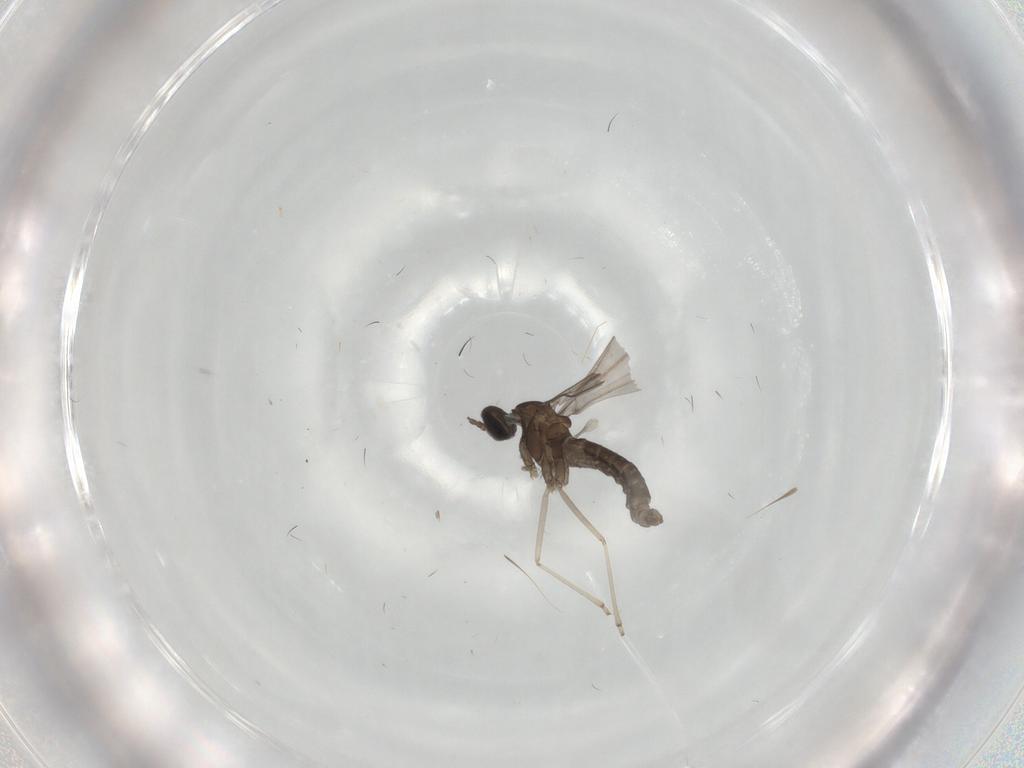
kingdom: Animalia
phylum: Arthropoda
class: Insecta
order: Diptera
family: Cecidomyiidae
